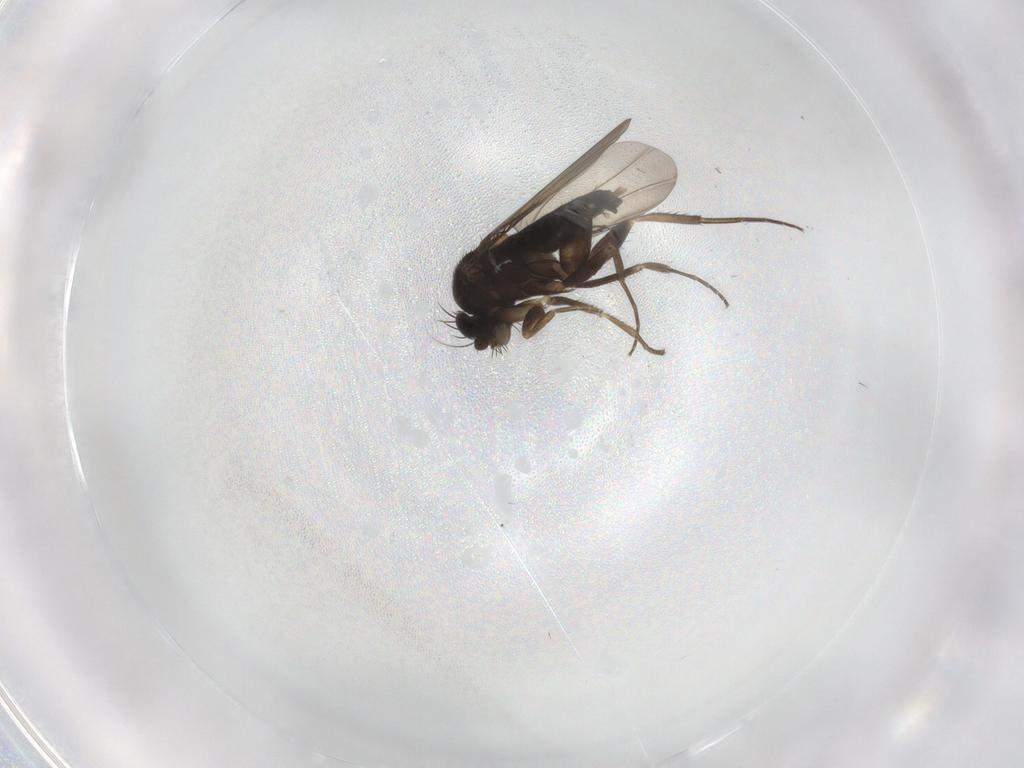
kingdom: Animalia
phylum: Arthropoda
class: Insecta
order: Diptera
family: Phoridae
